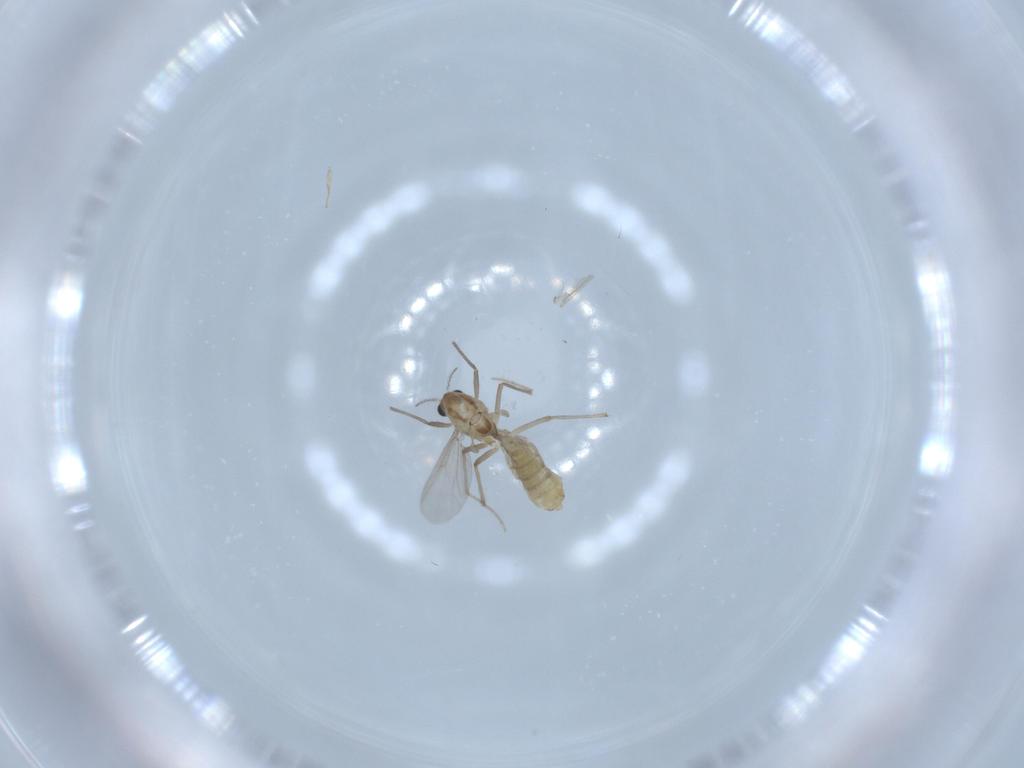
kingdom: Animalia
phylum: Arthropoda
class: Insecta
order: Diptera
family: Chironomidae
